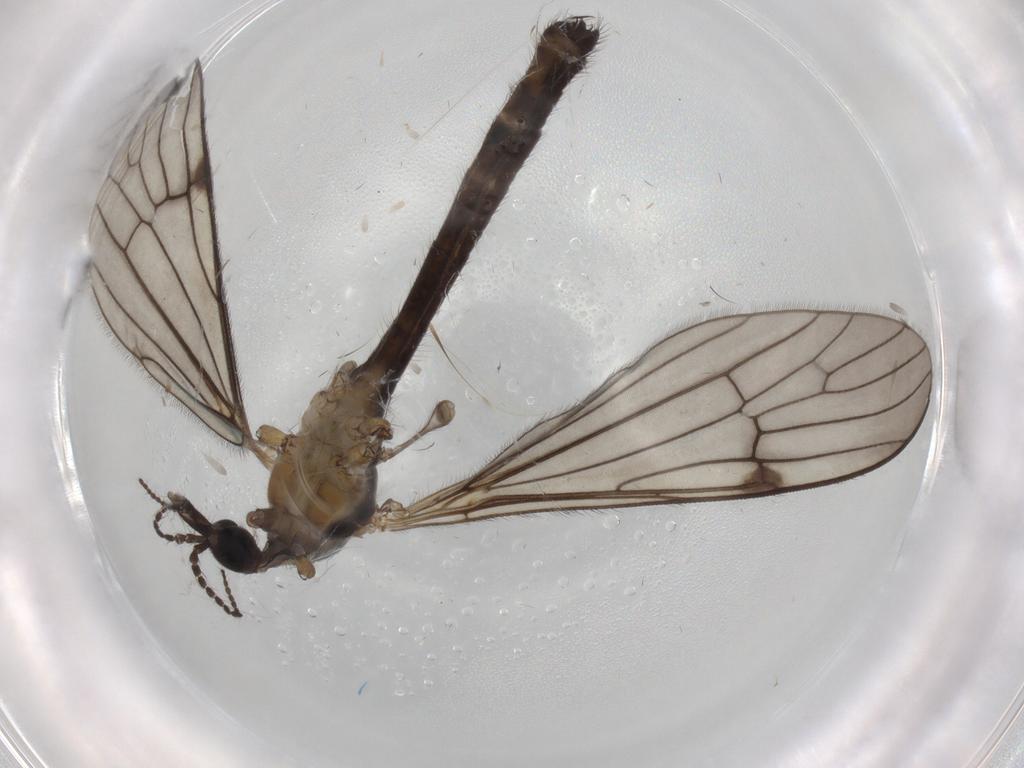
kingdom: Animalia
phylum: Arthropoda
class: Insecta
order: Diptera
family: Limoniidae
